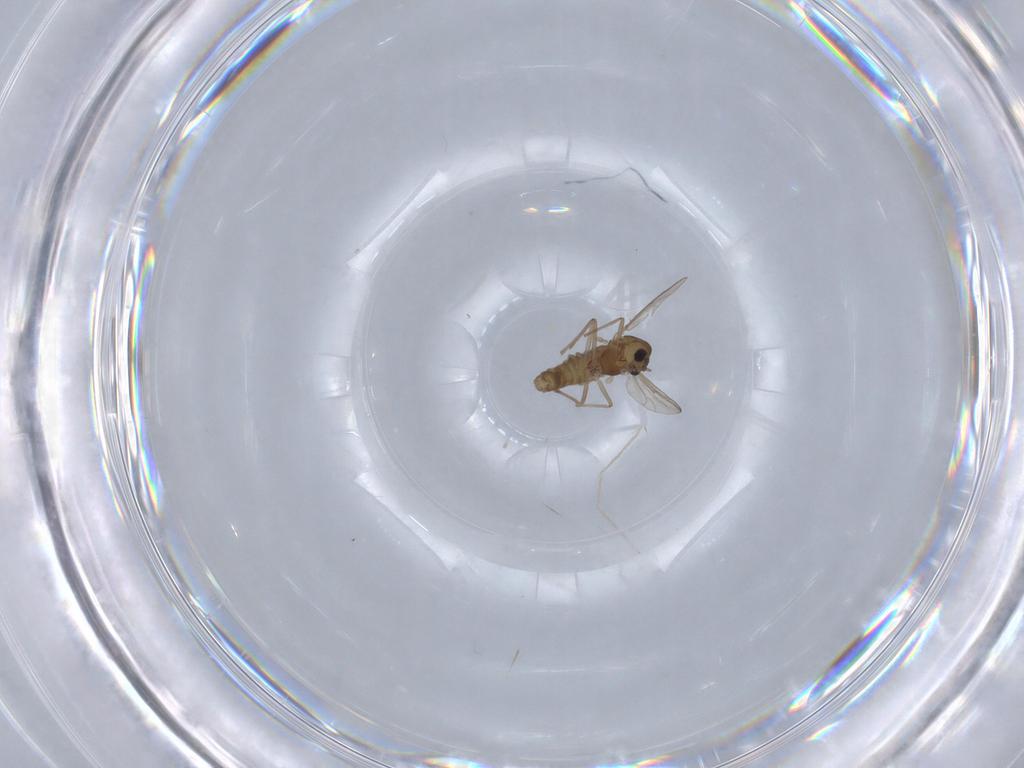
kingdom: Animalia
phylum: Arthropoda
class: Insecta
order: Diptera
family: Chironomidae
